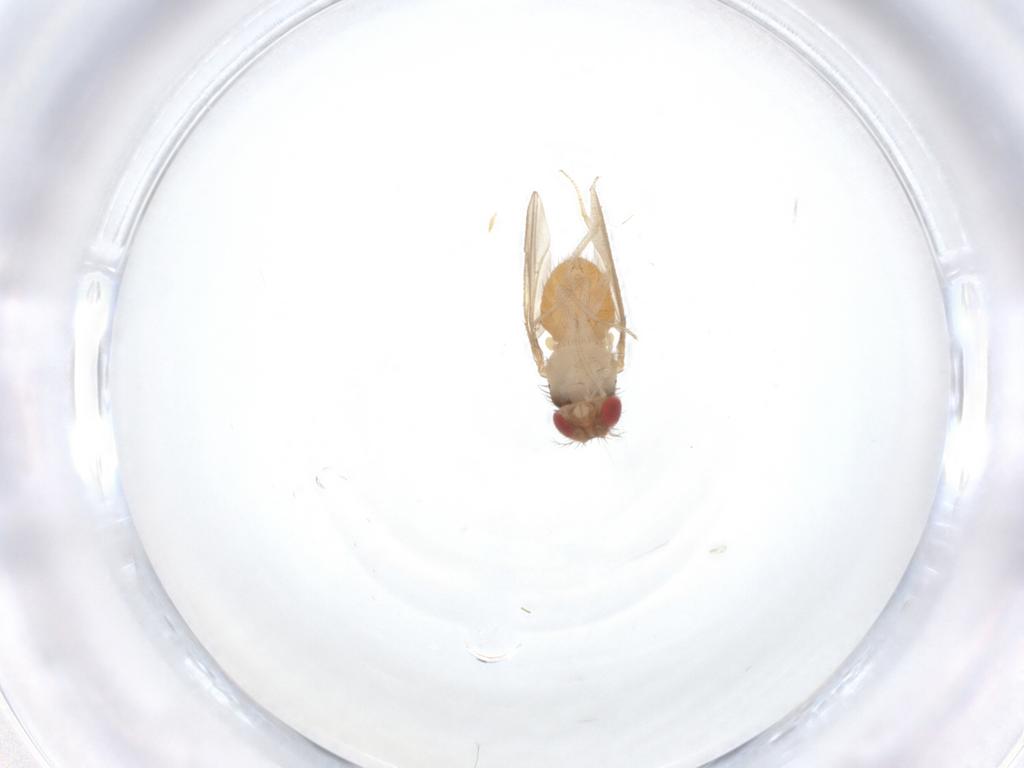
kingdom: Animalia
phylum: Arthropoda
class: Insecta
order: Diptera
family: Drosophilidae
